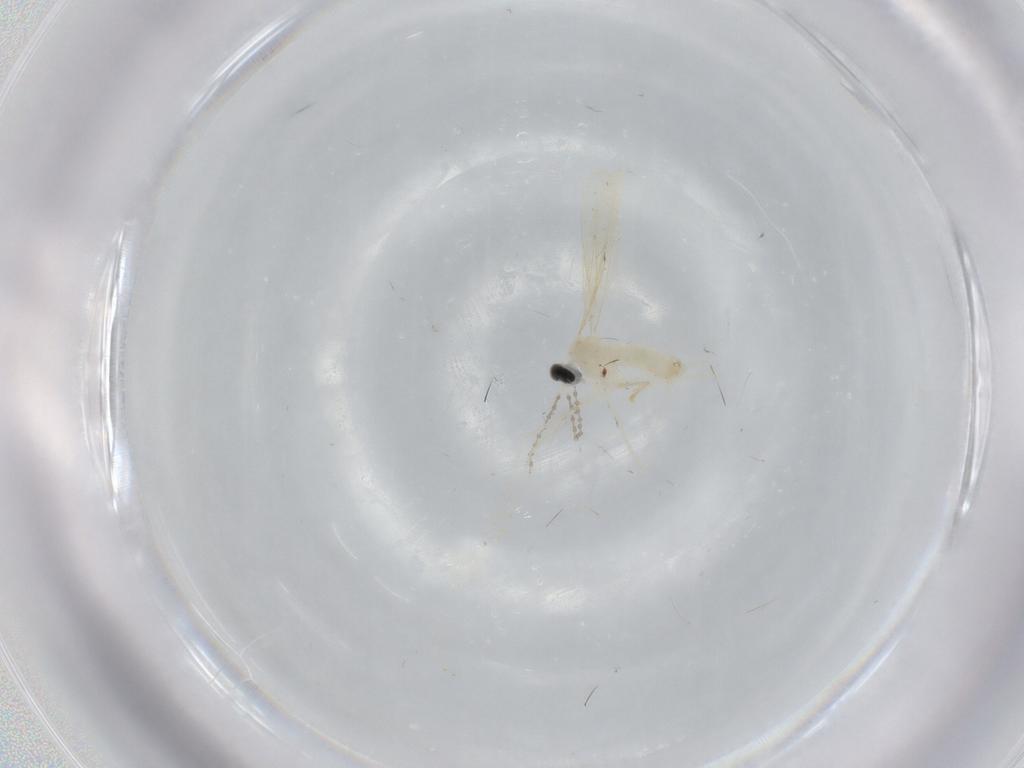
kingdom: Animalia
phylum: Arthropoda
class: Insecta
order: Diptera
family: Cecidomyiidae
